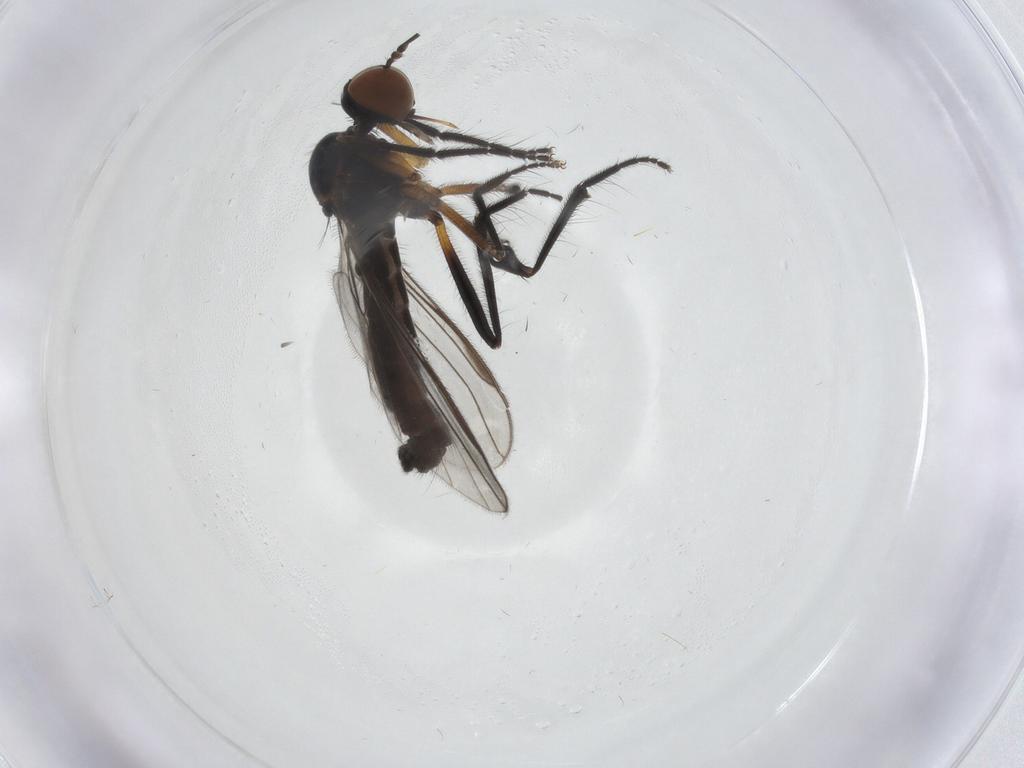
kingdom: Animalia
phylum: Arthropoda
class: Insecta
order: Diptera
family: Empididae
